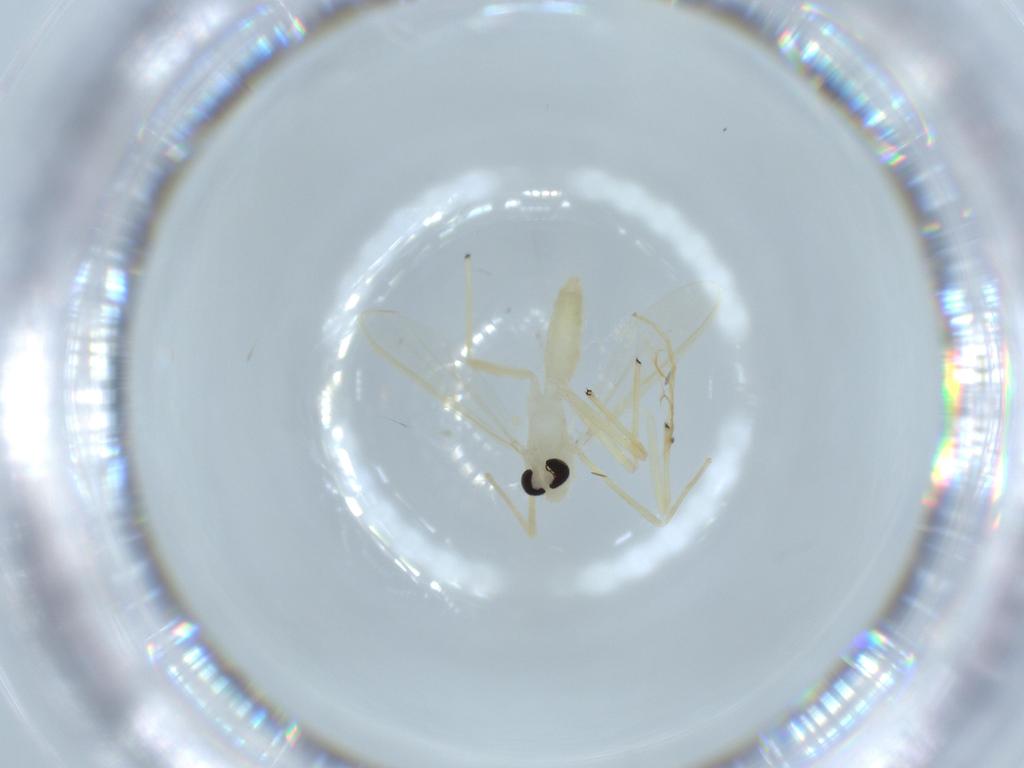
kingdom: Animalia
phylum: Arthropoda
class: Insecta
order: Diptera
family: Chironomidae
